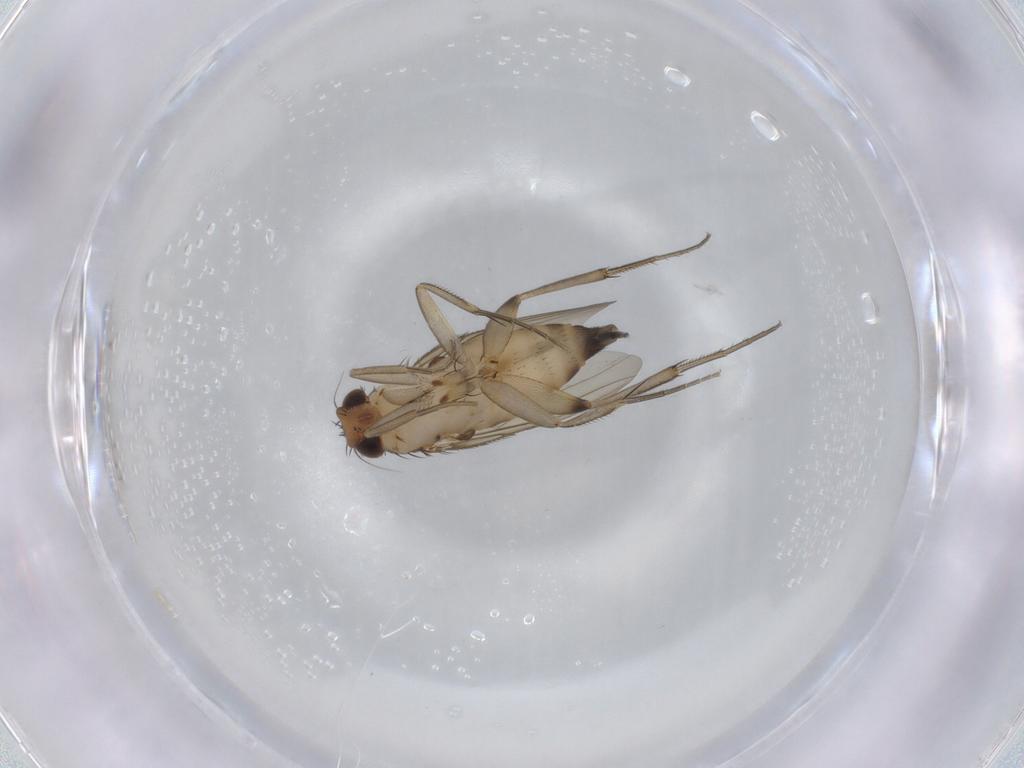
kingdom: Animalia
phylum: Arthropoda
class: Insecta
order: Diptera
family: Phoridae
